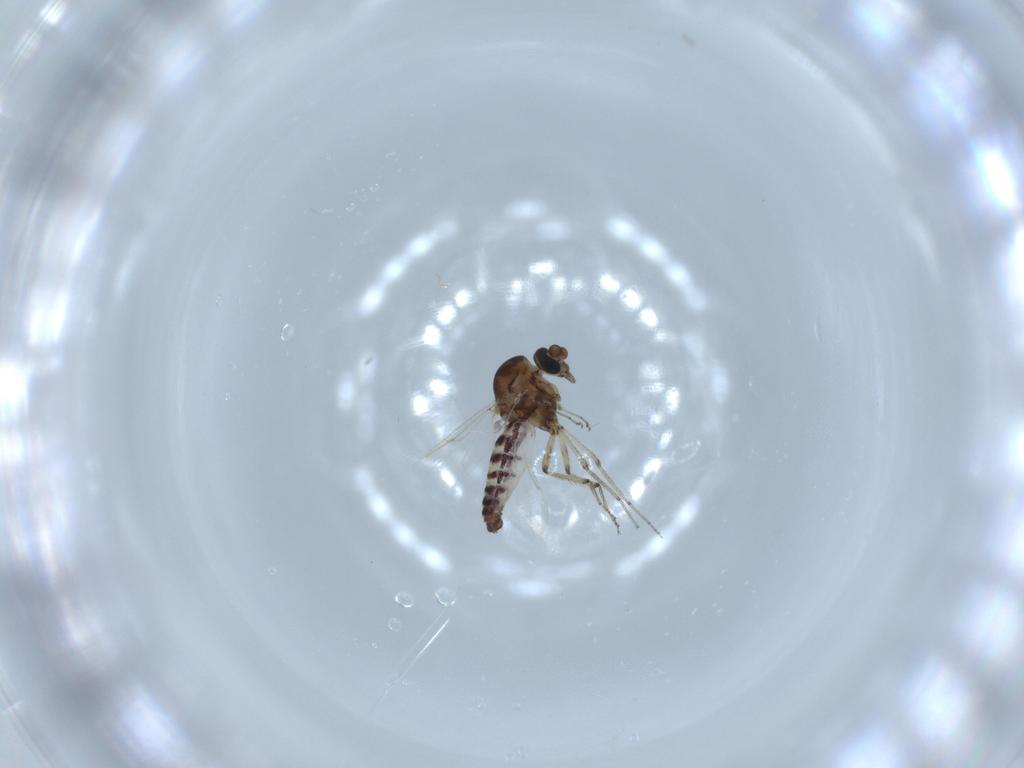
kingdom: Animalia
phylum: Arthropoda
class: Insecta
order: Diptera
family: Ceratopogonidae
